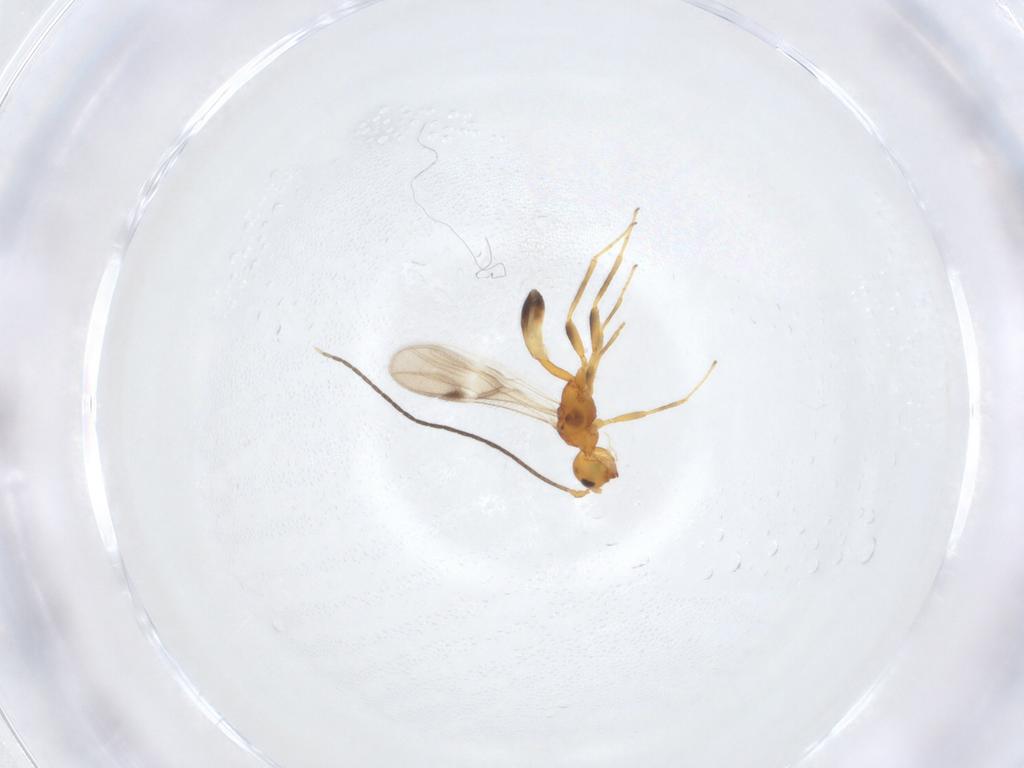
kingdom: Animalia
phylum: Arthropoda
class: Insecta
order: Hymenoptera
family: Braconidae
